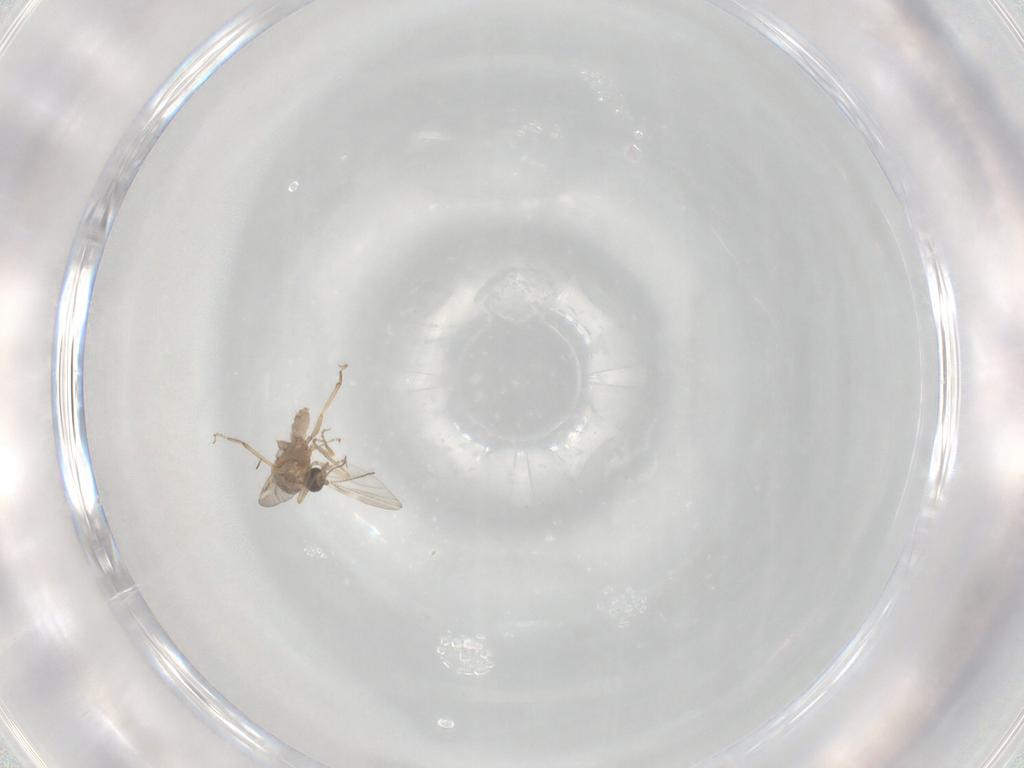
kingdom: Animalia
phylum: Arthropoda
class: Insecta
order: Diptera
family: Ceratopogonidae
